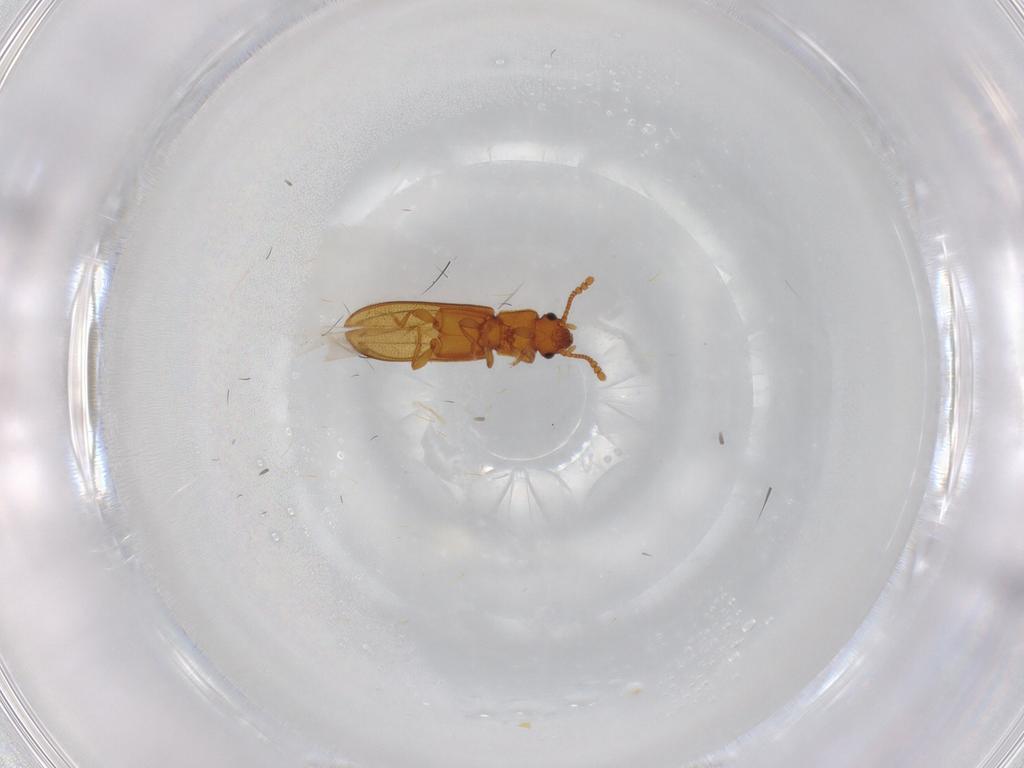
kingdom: Animalia
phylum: Arthropoda
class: Insecta
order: Coleoptera
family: Tenebrionidae
